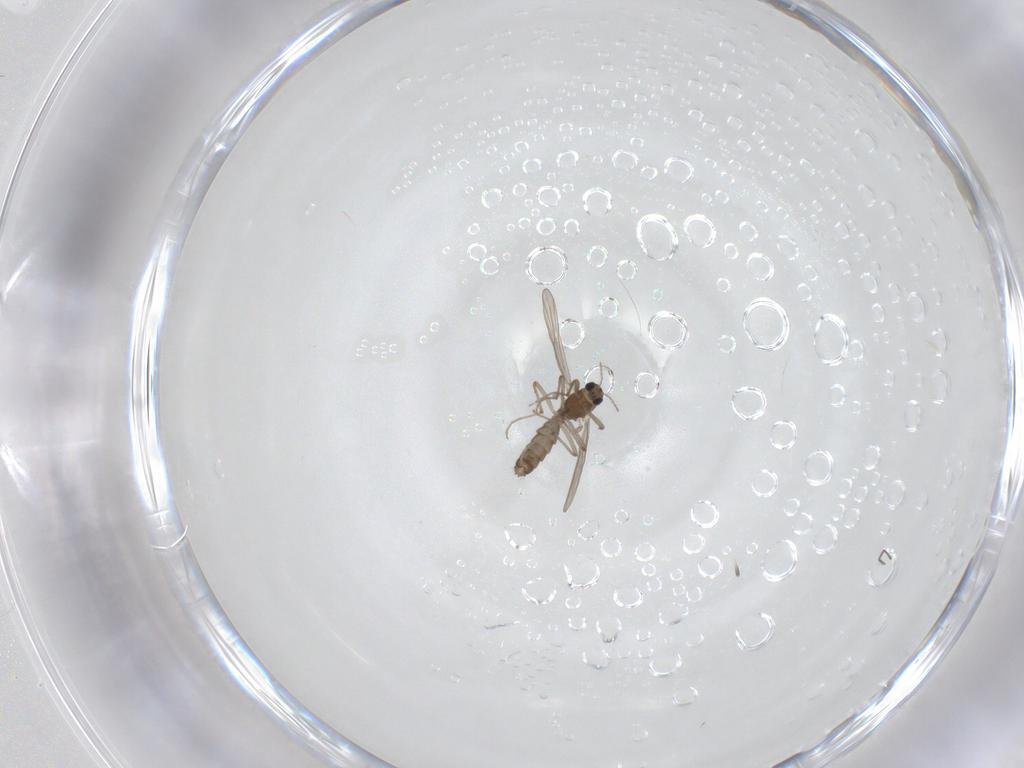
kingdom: Animalia
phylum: Arthropoda
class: Insecta
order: Diptera
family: Chironomidae
